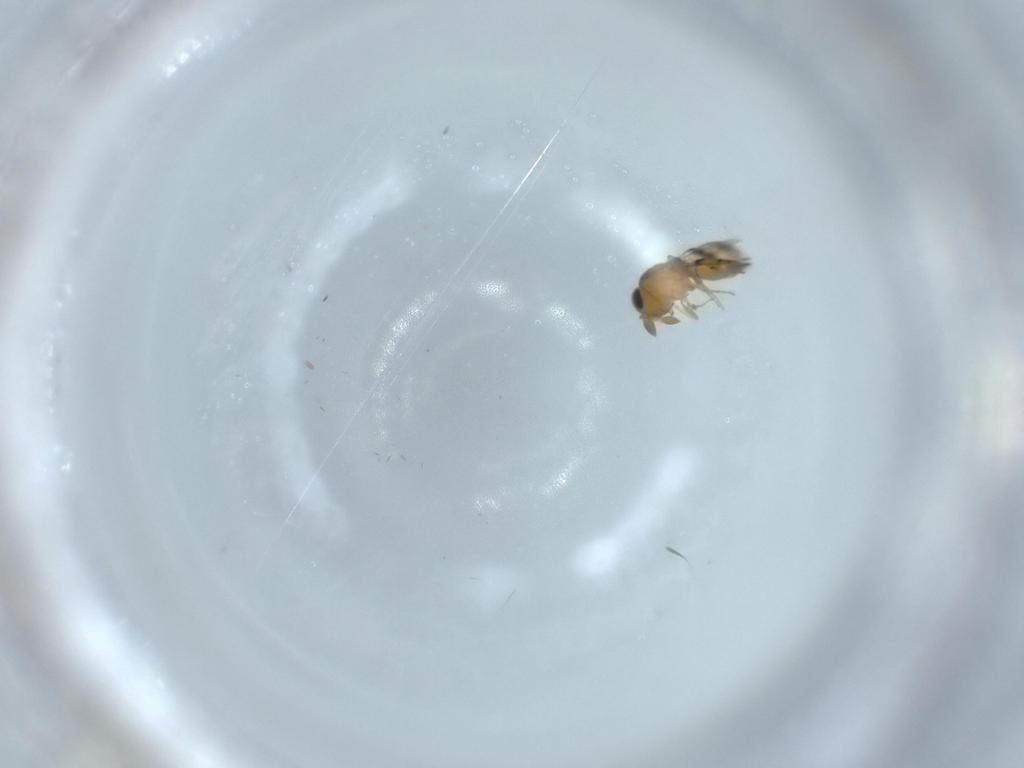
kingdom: Animalia
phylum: Arthropoda
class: Insecta
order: Hymenoptera
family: Scelionidae
